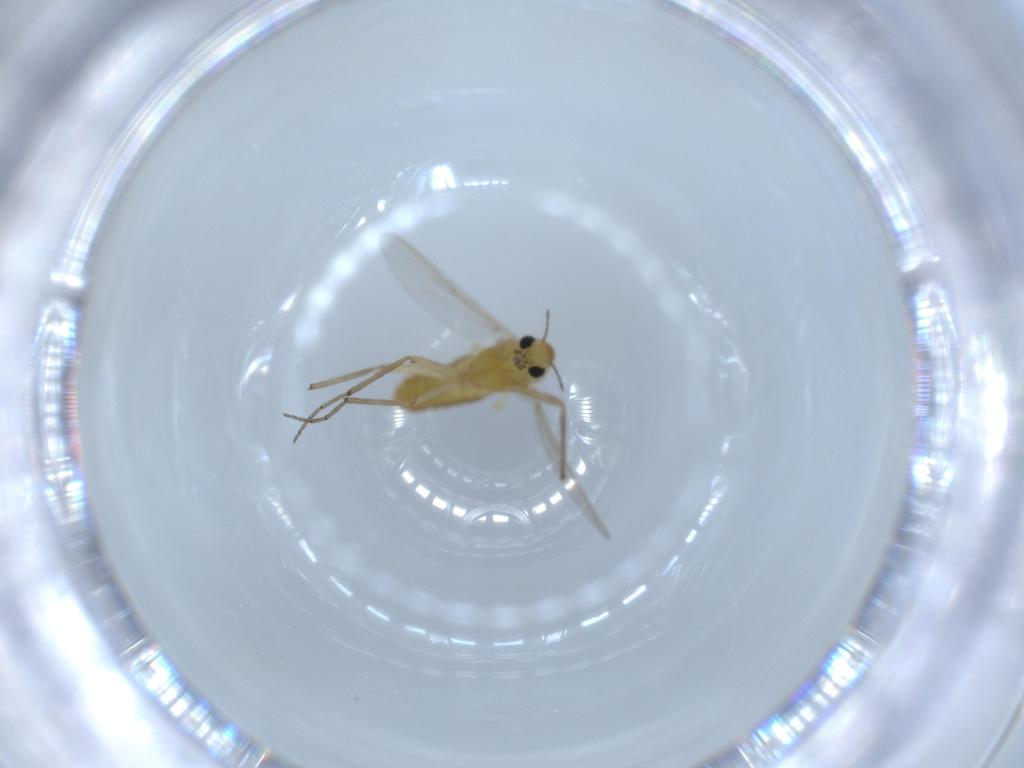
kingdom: Animalia
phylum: Arthropoda
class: Insecta
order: Diptera
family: Chironomidae
